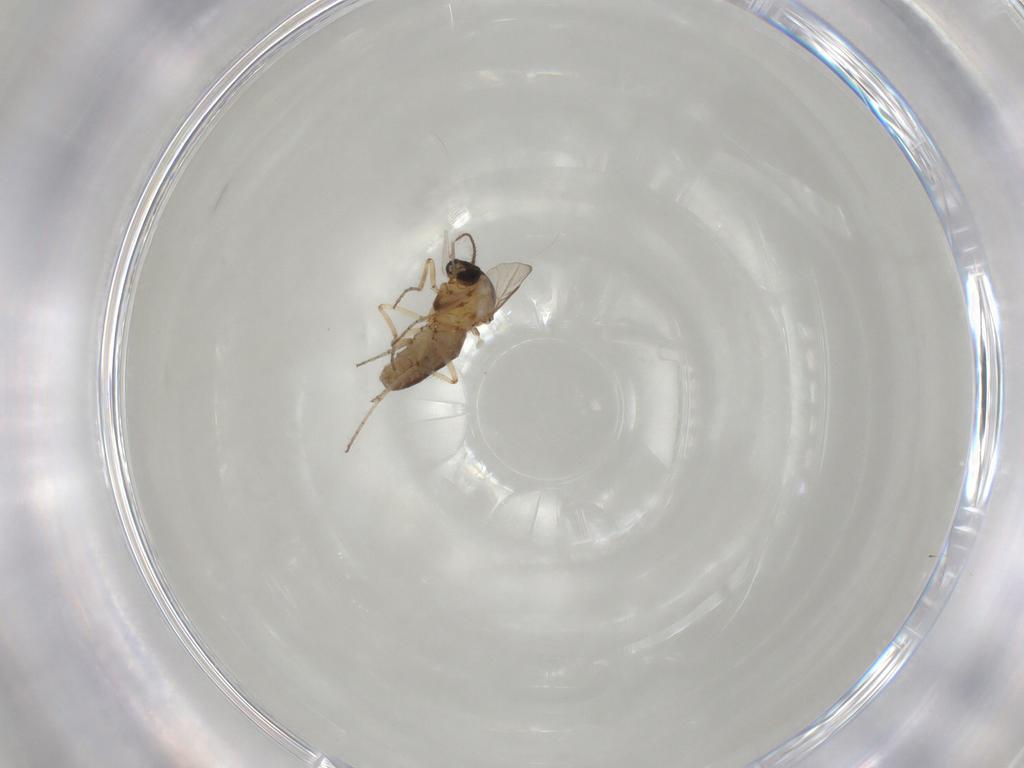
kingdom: Animalia
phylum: Arthropoda
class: Insecta
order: Diptera
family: Ceratopogonidae
